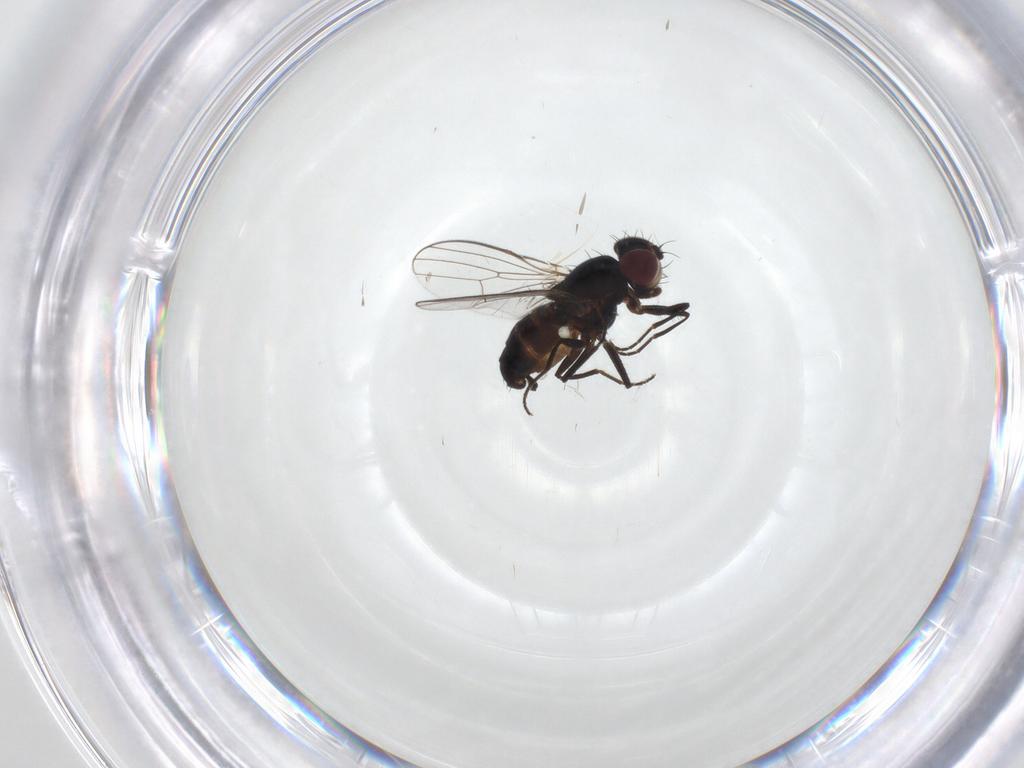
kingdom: Animalia
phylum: Arthropoda
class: Insecta
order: Diptera
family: Carnidae
